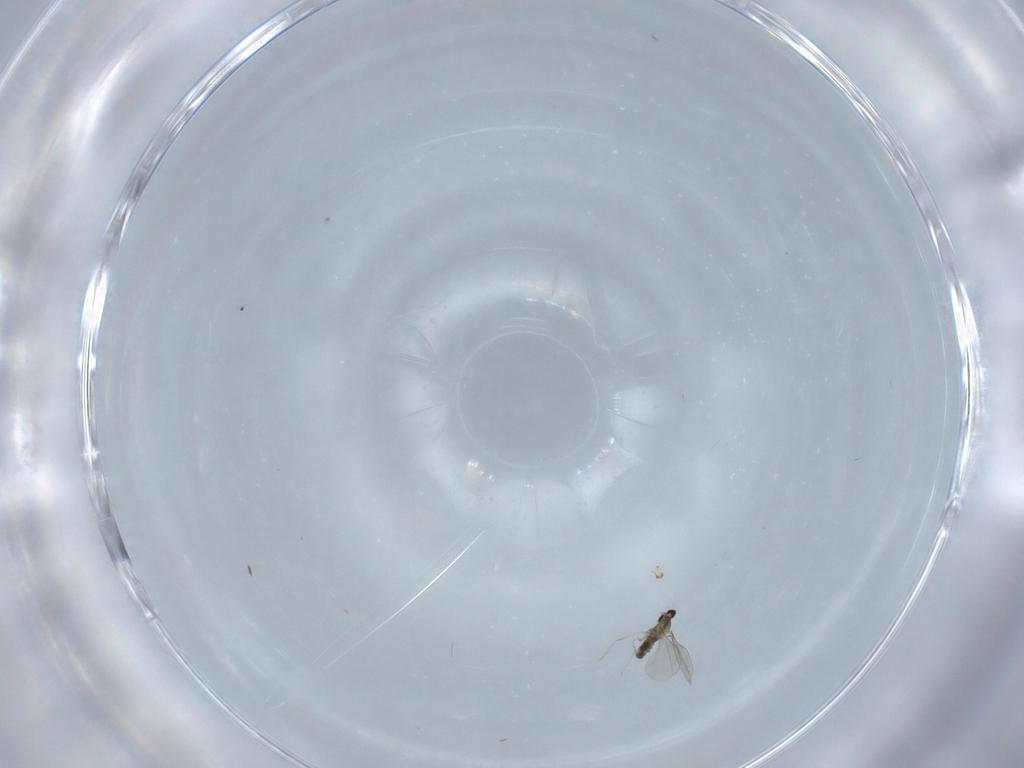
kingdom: Animalia
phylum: Arthropoda
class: Insecta
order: Diptera
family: Cecidomyiidae
